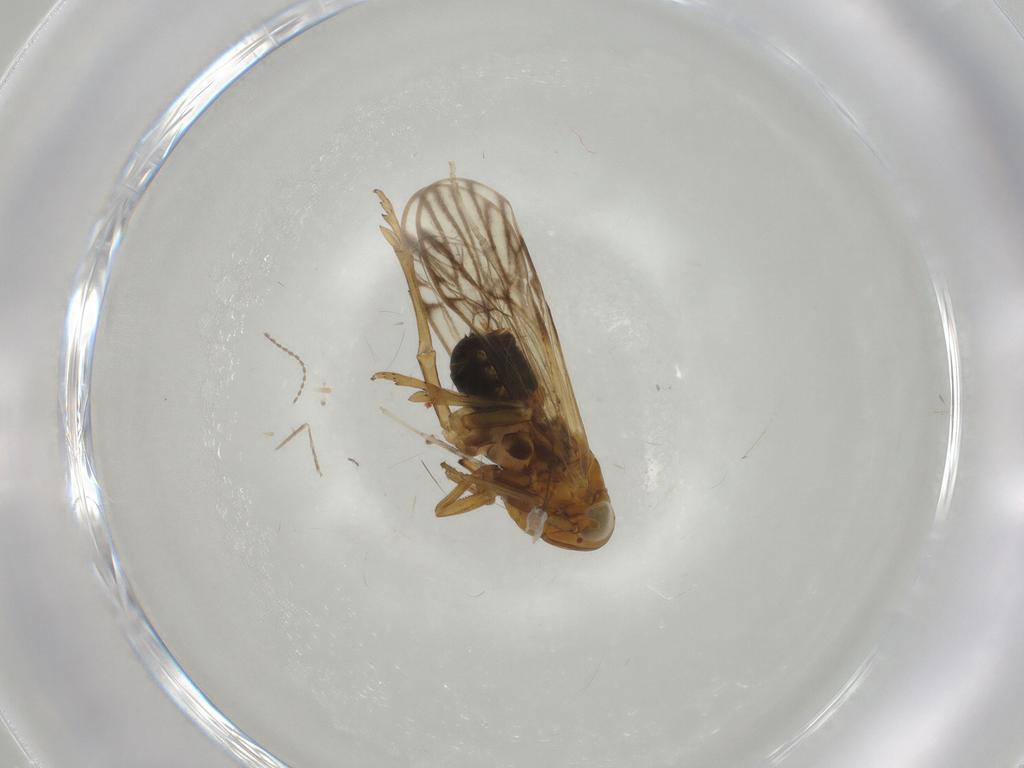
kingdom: Animalia
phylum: Arthropoda
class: Insecta
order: Hemiptera
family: Delphacidae
